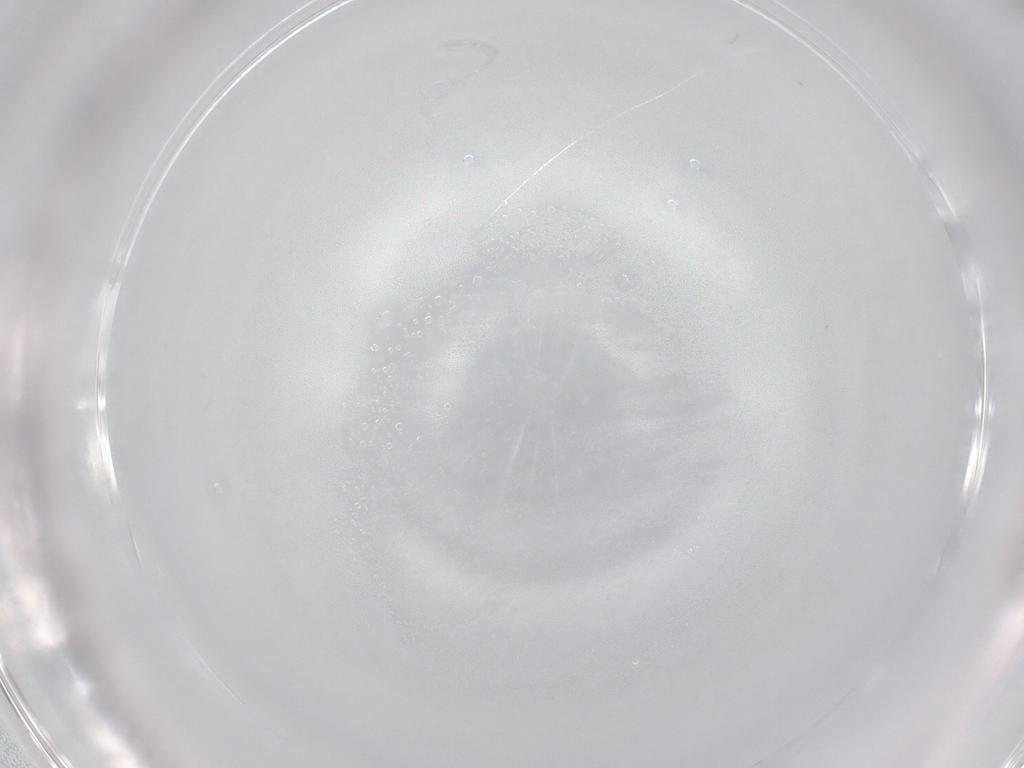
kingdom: Animalia
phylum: Arthropoda
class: Collembola
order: Entomobryomorpha
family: Entomobryidae
